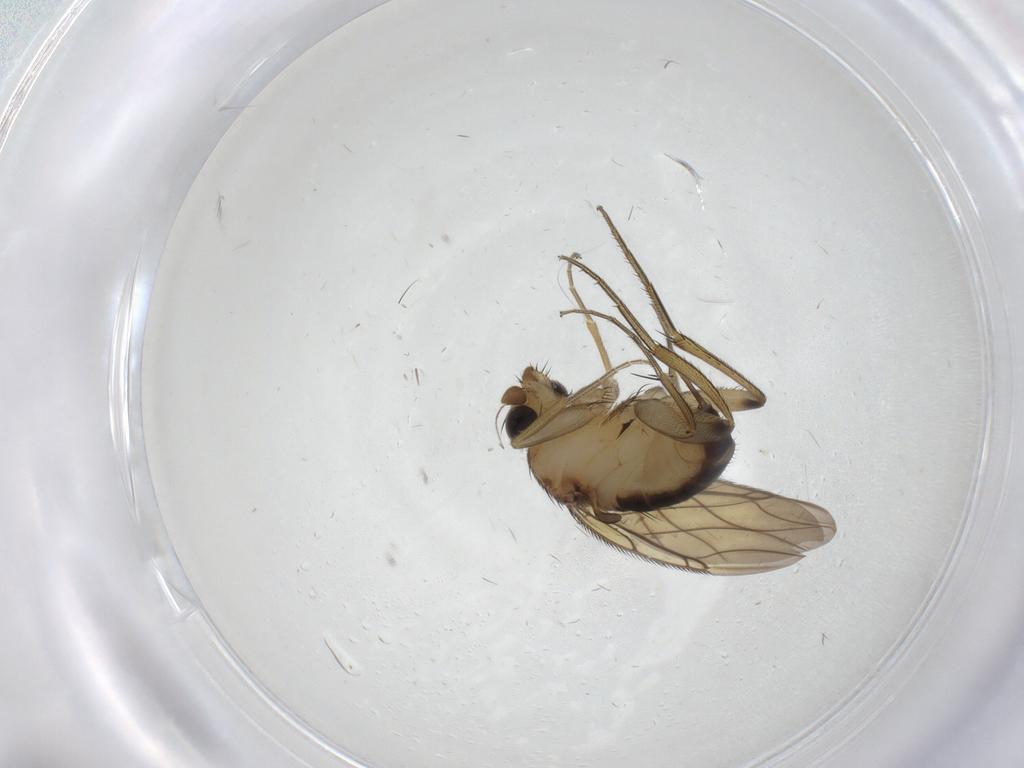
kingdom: Animalia
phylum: Arthropoda
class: Insecta
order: Diptera
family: Phoridae
